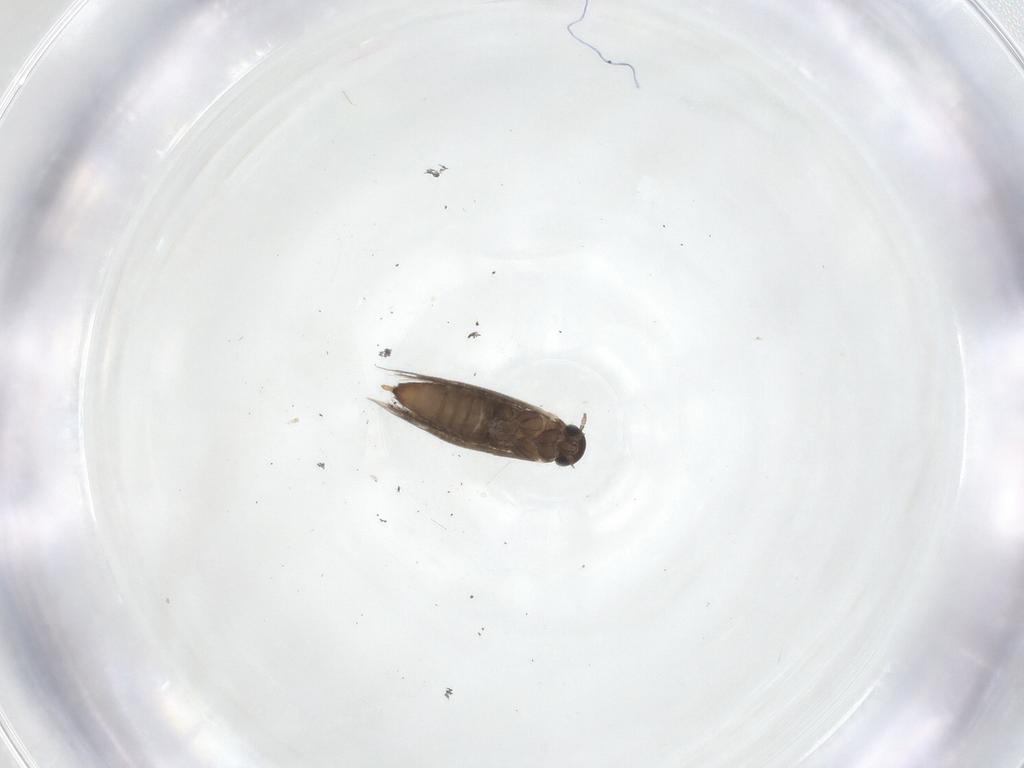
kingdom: Animalia
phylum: Arthropoda
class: Insecta
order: Lepidoptera
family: Heliozelidae
